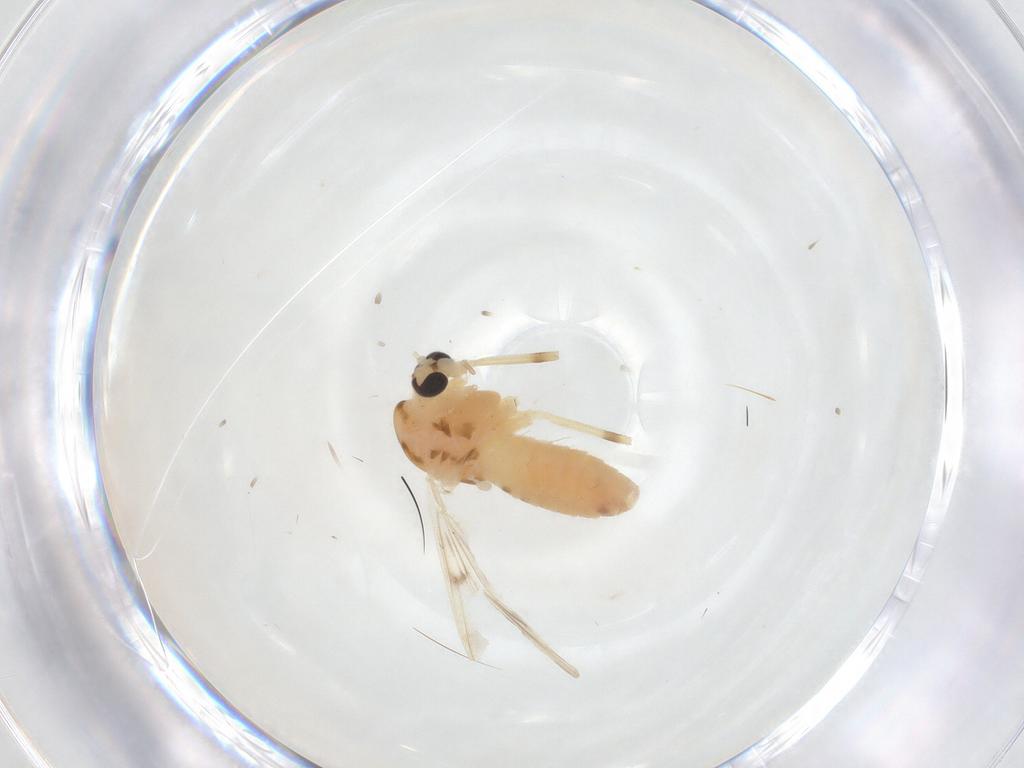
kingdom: Animalia
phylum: Arthropoda
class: Insecta
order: Diptera
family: Chironomidae
